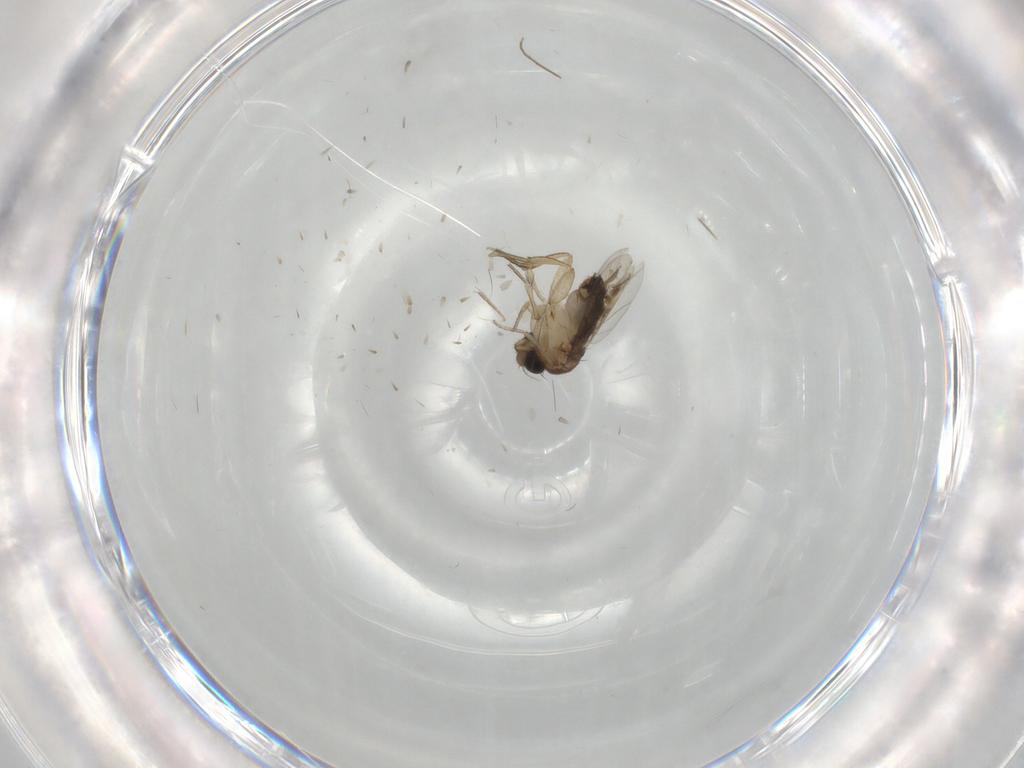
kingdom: Animalia
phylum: Arthropoda
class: Insecta
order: Diptera
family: Chironomidae
